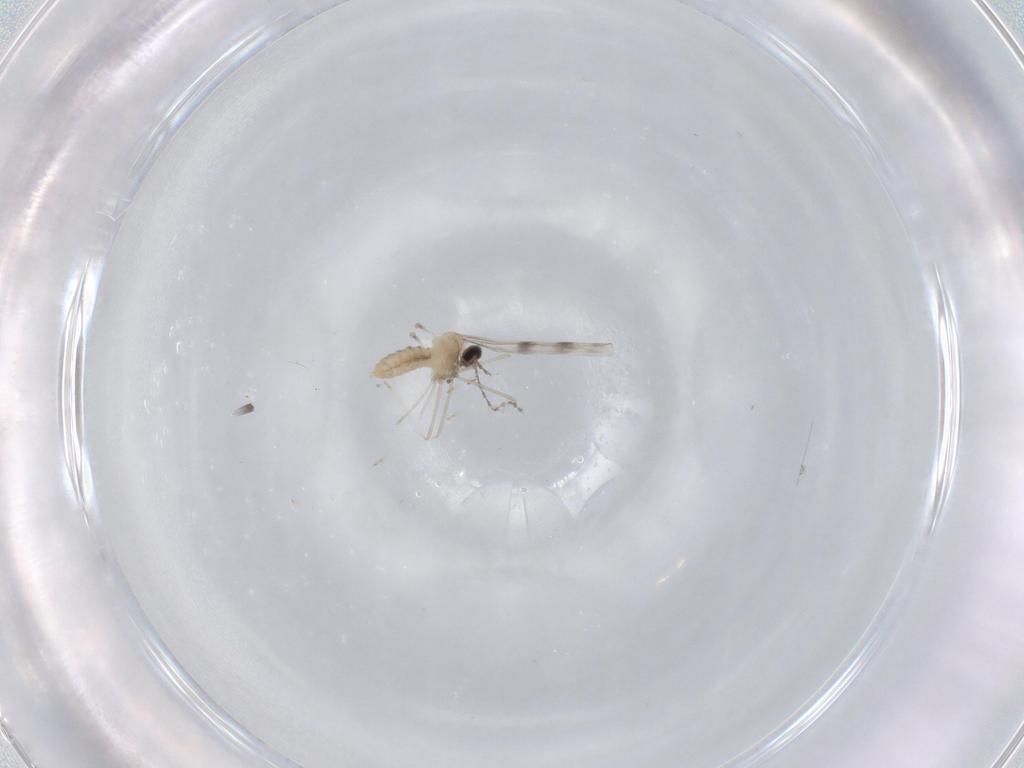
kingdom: Animalia
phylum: Arthropoda
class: Insecta
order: Diptera
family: Cecidomyiidae
